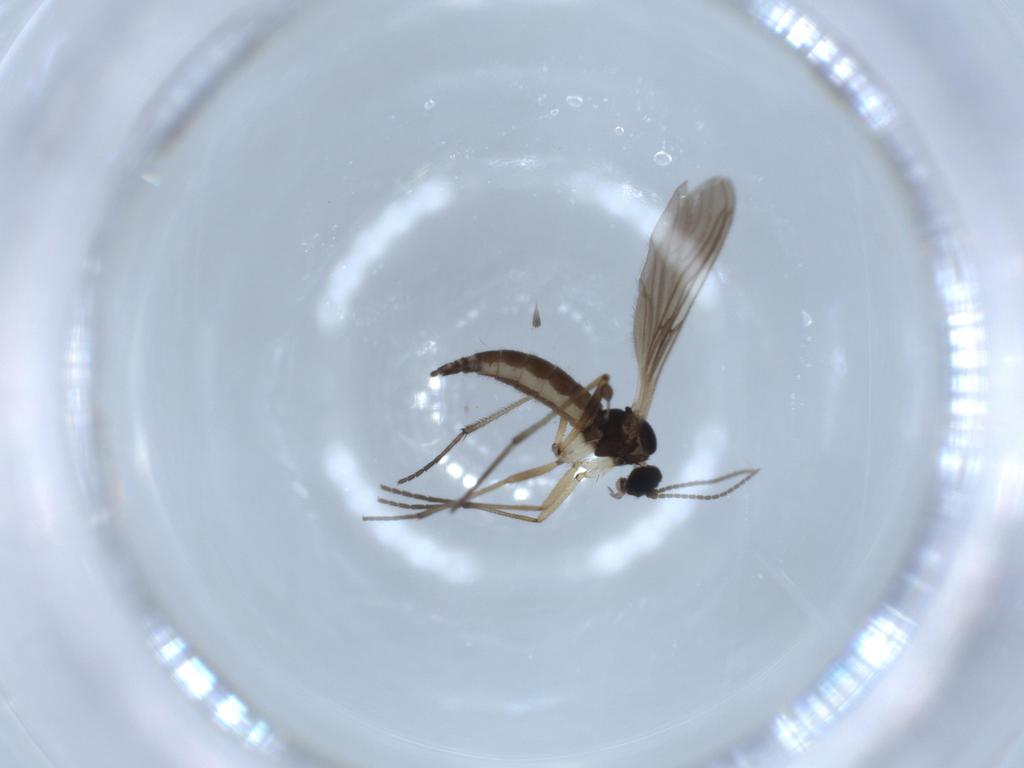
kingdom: Animalia
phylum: Arthropoda
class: Insecta
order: Diptera
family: Sciaridae
